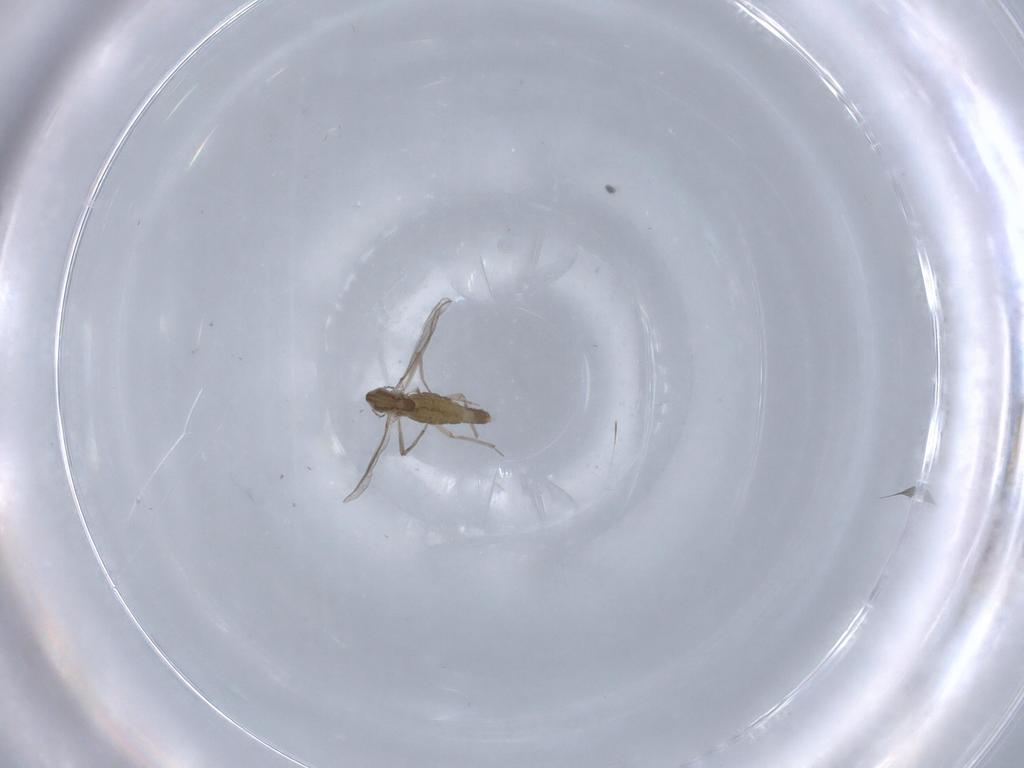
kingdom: Animalia
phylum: Arthropoda
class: Insecta
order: Diptera
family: Chironomidae
